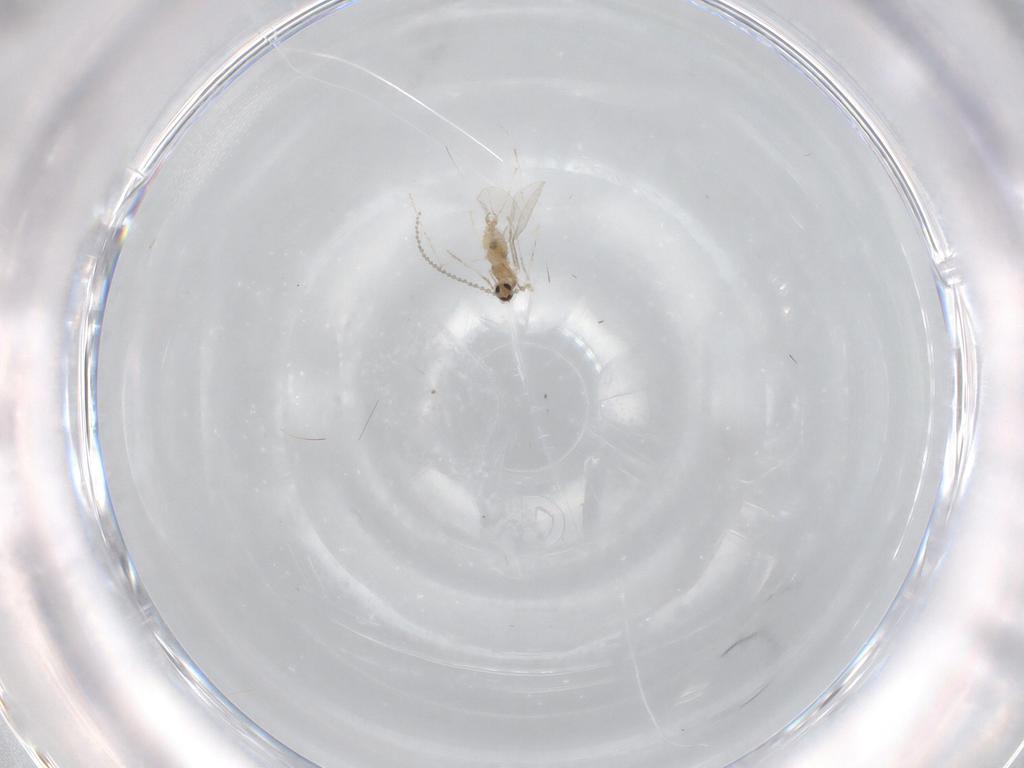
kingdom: Animalia
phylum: Arthropoda
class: Insecta
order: Diptera
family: Cecidomyiidae
